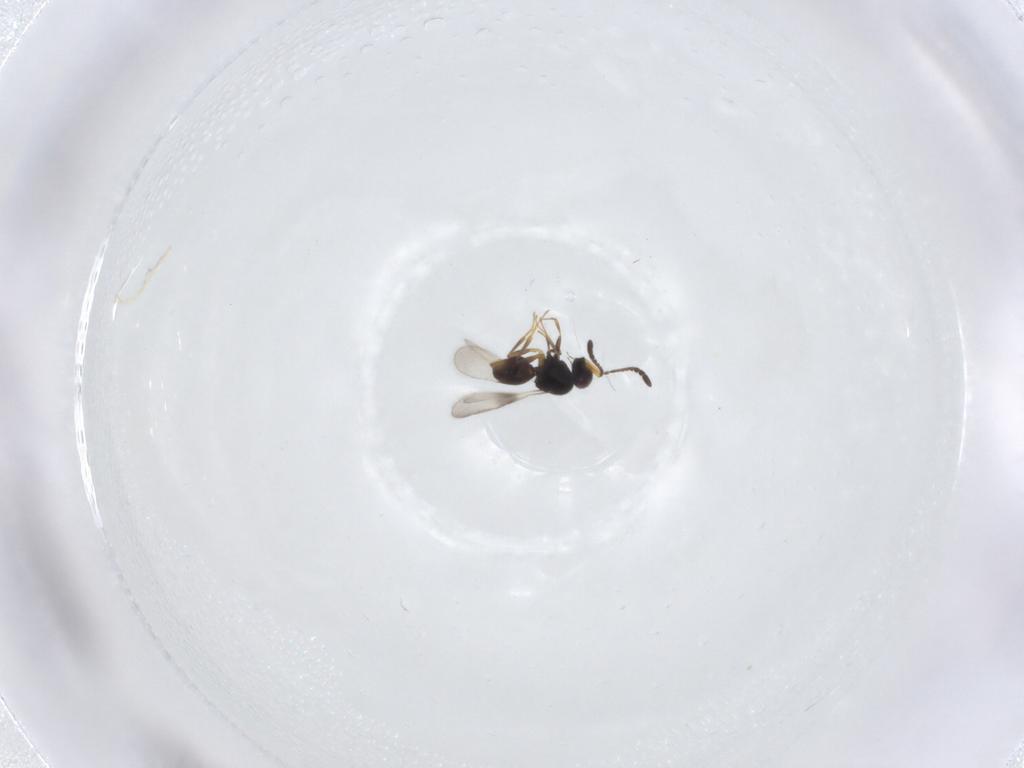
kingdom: Animalia
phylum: Arthropoda
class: Insecta
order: Hymenoptera
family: Ceraphronidae
